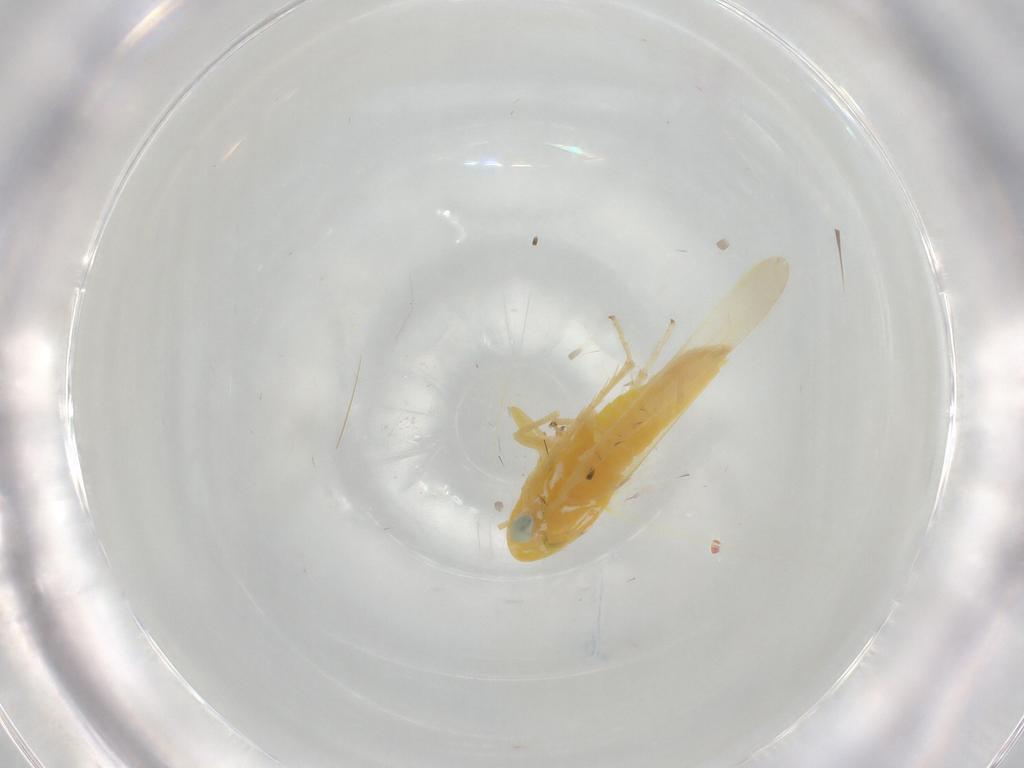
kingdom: Animalia
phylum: Arthropoda
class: Insecta
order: Hemiptera
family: Cicadellidae
